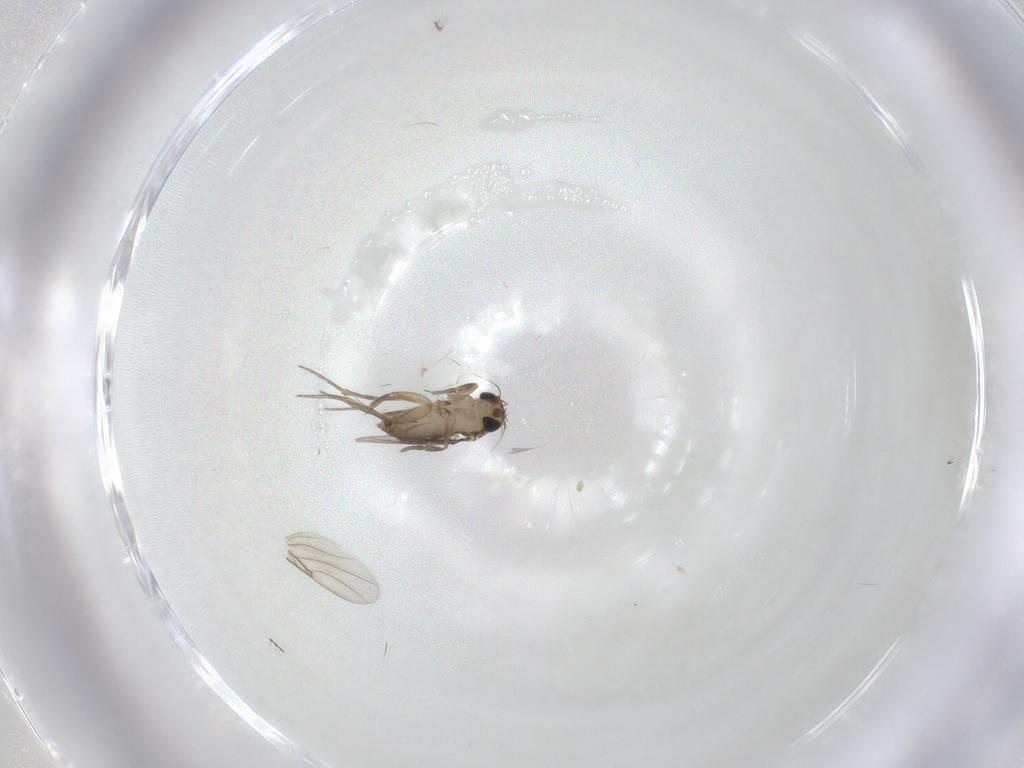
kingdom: Animalia
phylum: Arthropoda
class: Insecta
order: Diptera
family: Phoridae
